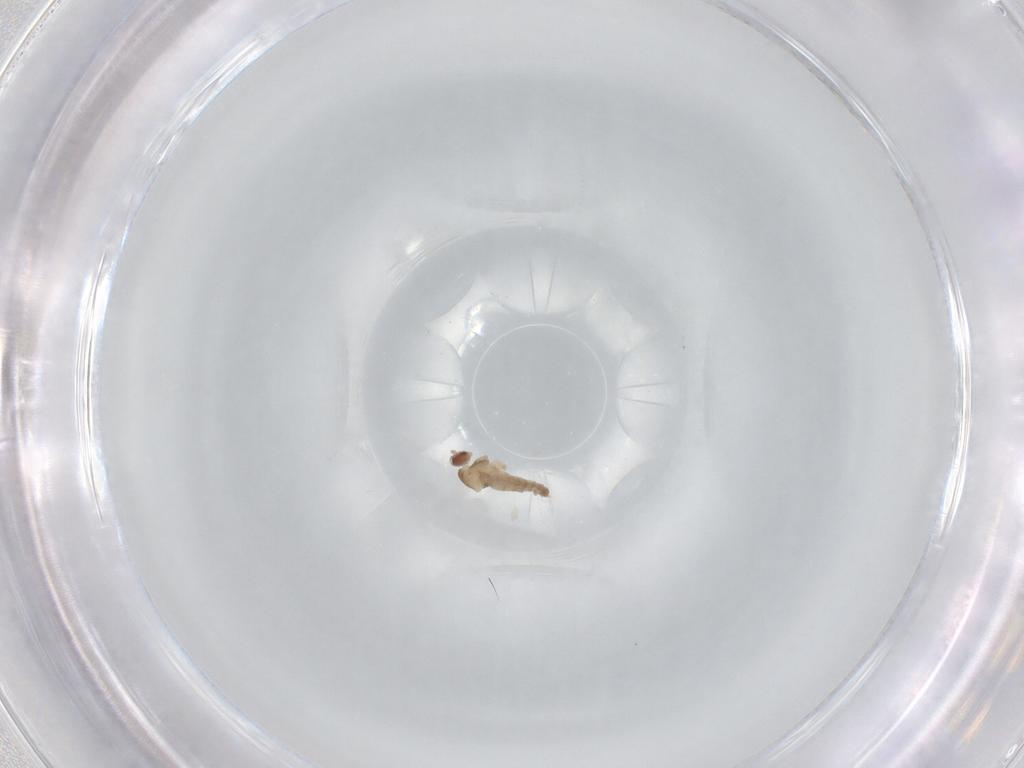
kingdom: Animalia
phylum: Arthropoda
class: Insecta
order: Diptera
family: Cecidomyiidae
